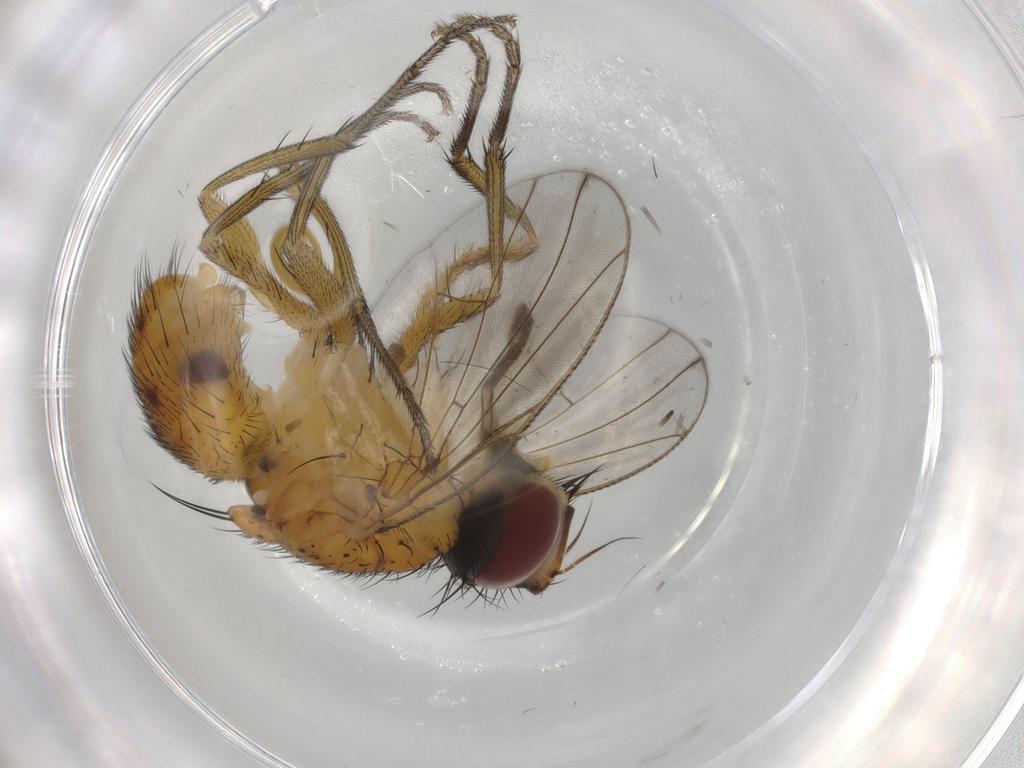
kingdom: Animalia
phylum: Arthropoda
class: Insecta
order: Diptera
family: Muscidae
